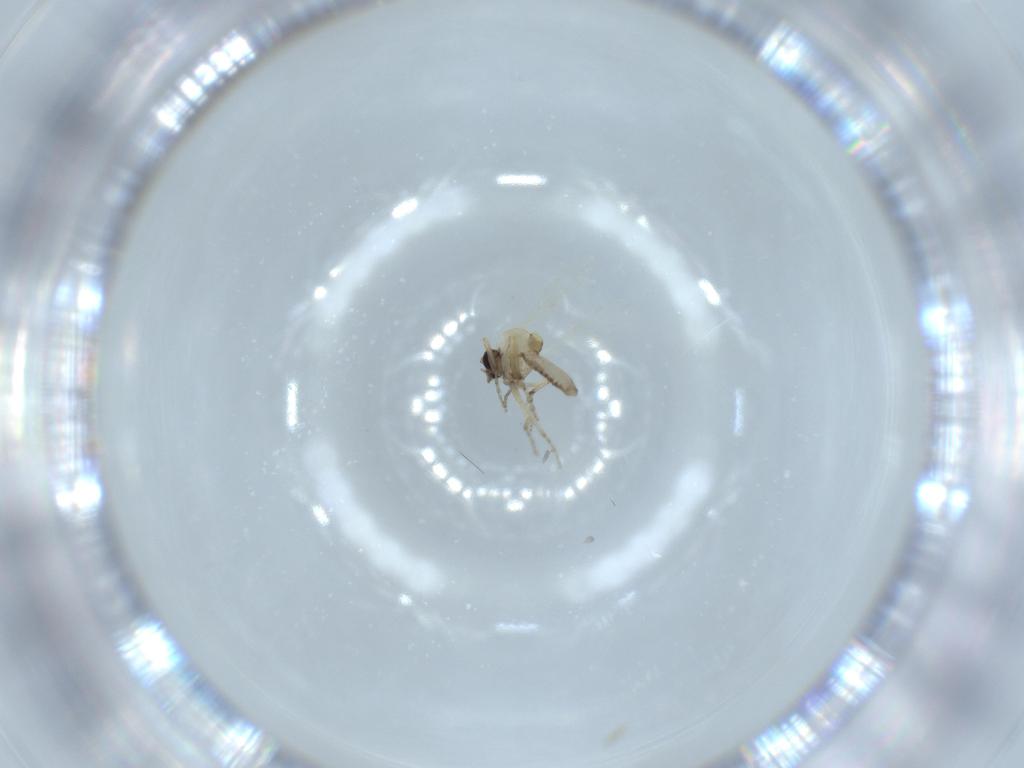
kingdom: Animalia
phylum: Arthropoda
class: Insecta
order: Diptera
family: Ceratopogonidae
